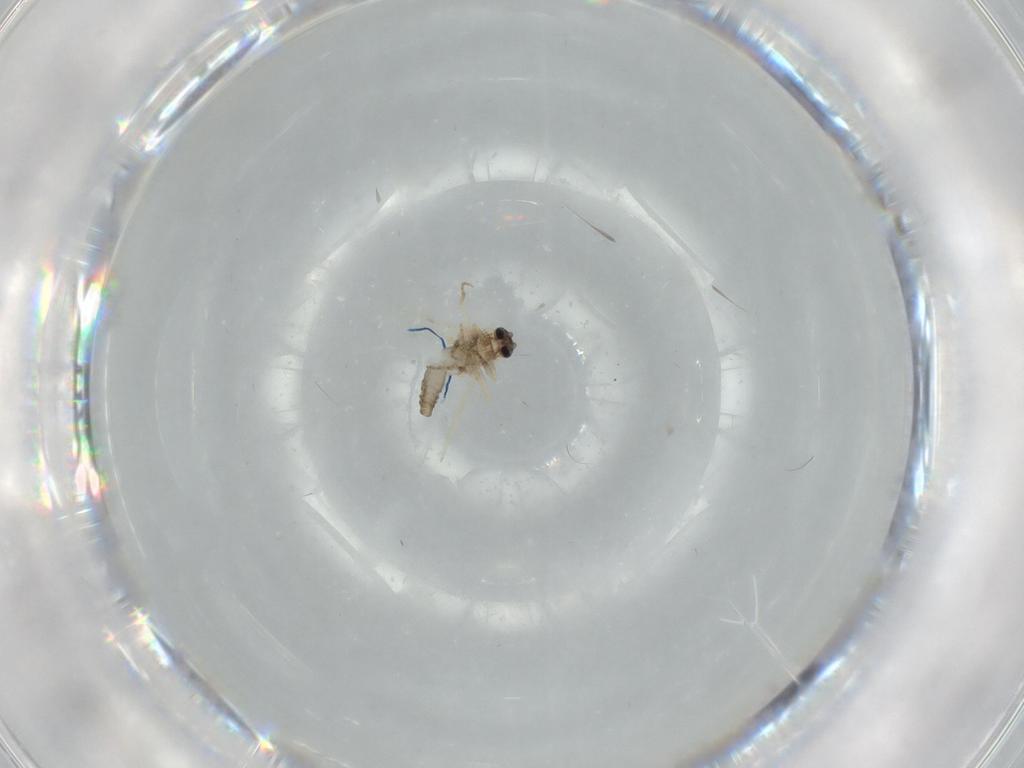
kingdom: Animalia
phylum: Arthropoda
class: Insecta
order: Diptera
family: Ceratopogonidae
